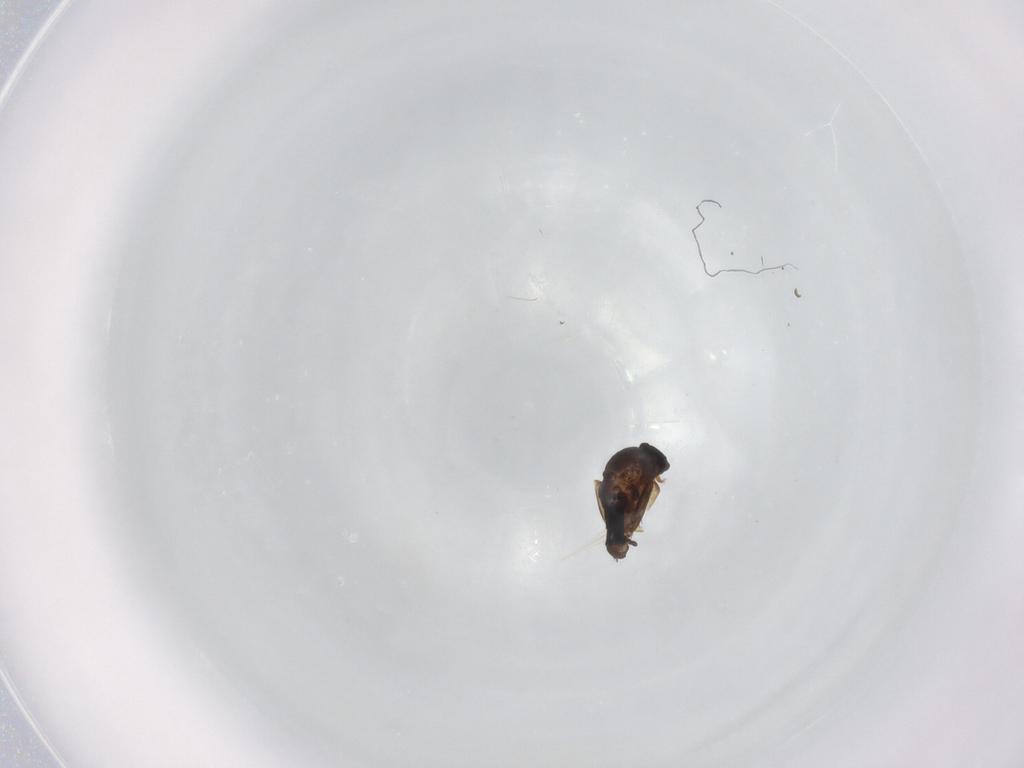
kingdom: Animalia
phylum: Arthropoda
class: Insecta
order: Diptera
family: Phoridae
